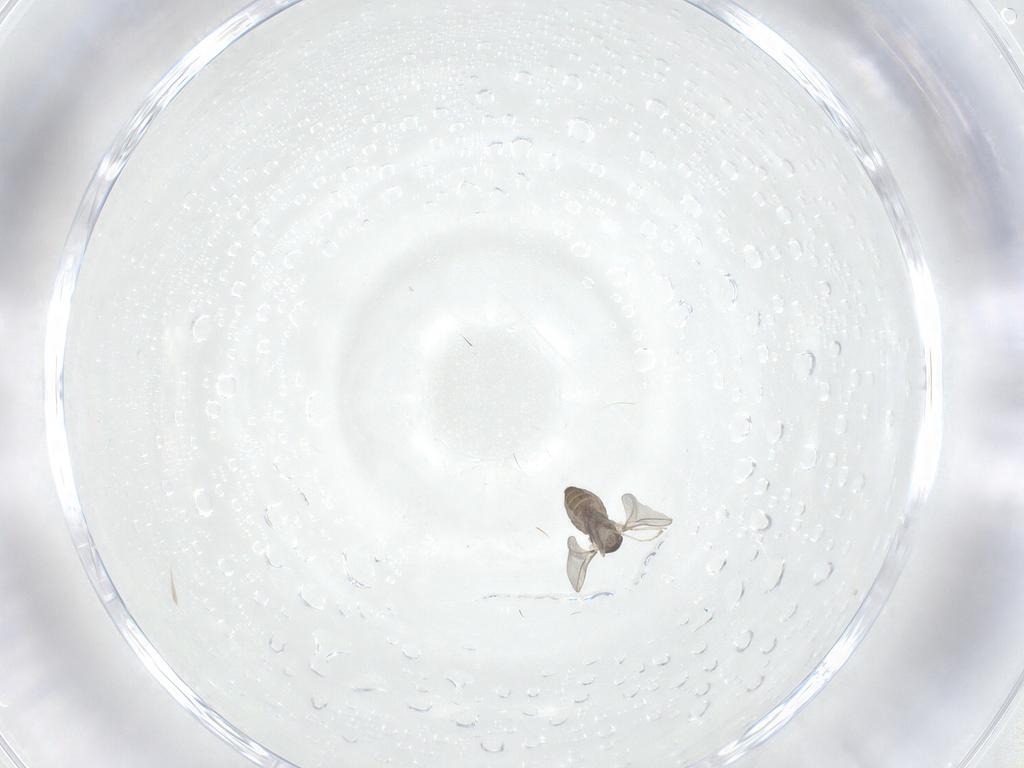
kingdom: Animalia
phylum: Arthropoda
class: Insecta
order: Diptera
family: Cecidomyiidae
